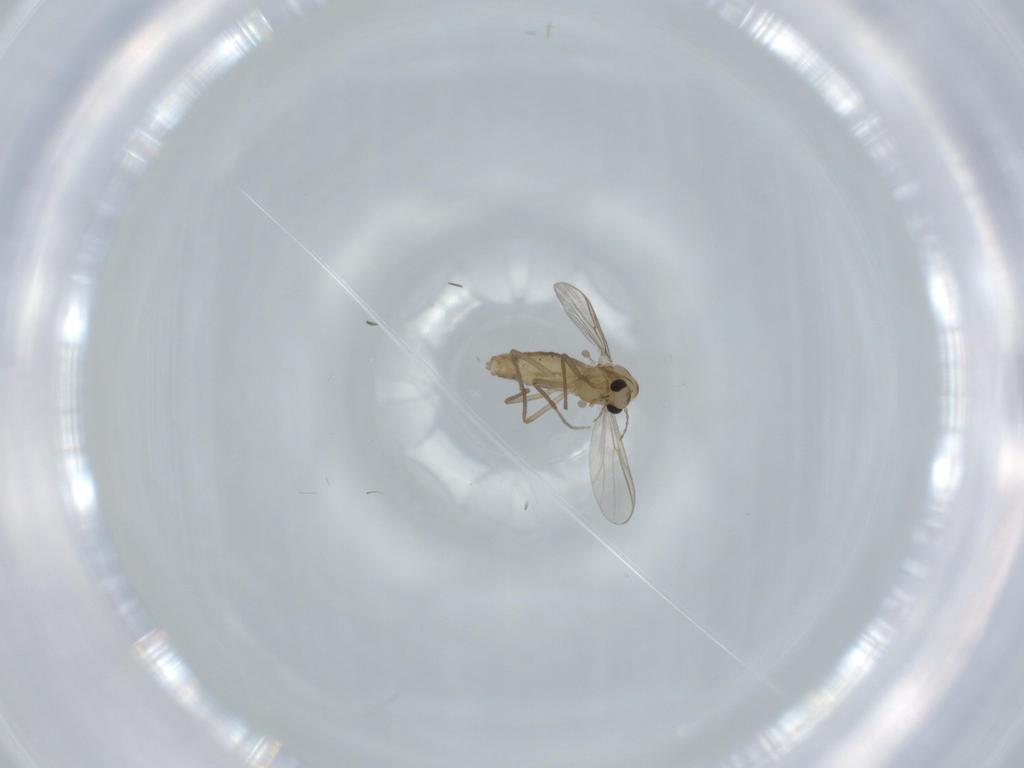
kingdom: Animalia
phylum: Arthropoda
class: Insecta
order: Diptera
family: Chironomidae
